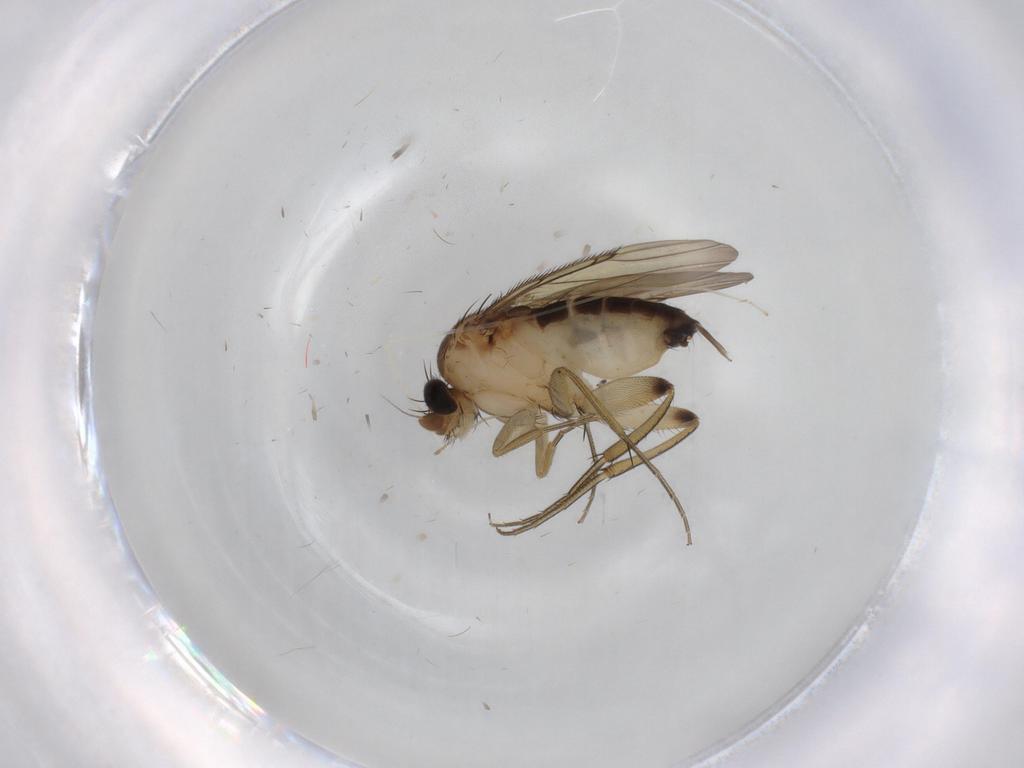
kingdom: Animalia
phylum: Arthropoda
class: Insecta
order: Diptera
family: Phoridae
